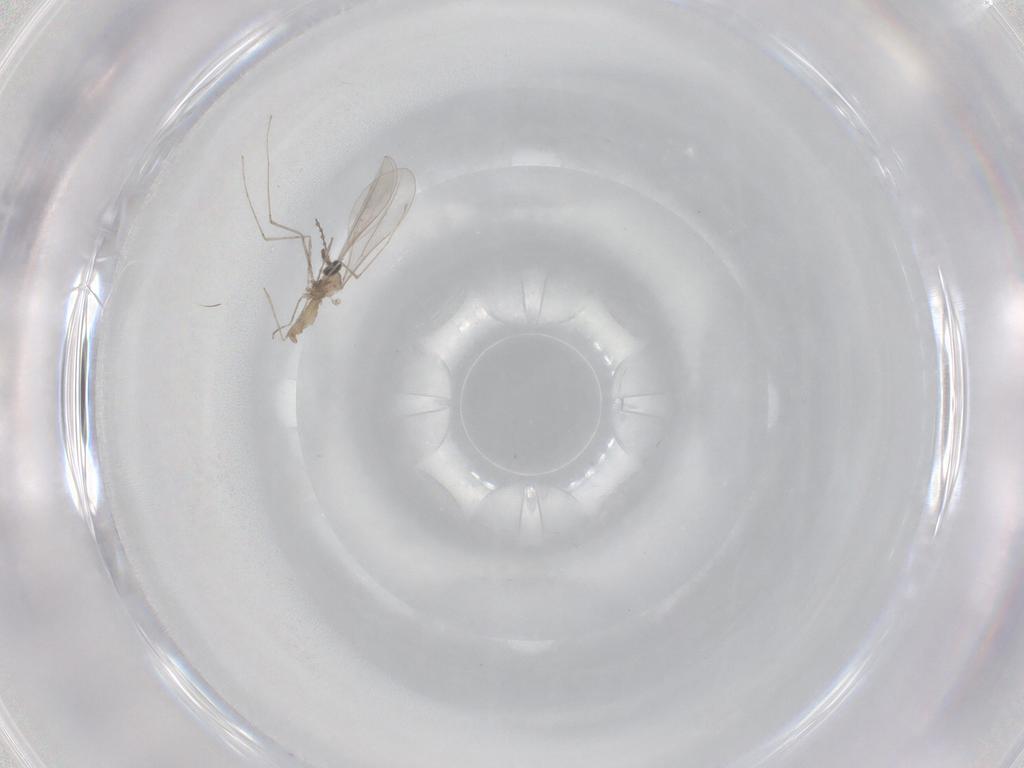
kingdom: Animalia
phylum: Arthropoda
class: Insecta
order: Diptera
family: Cecidomyiidae
